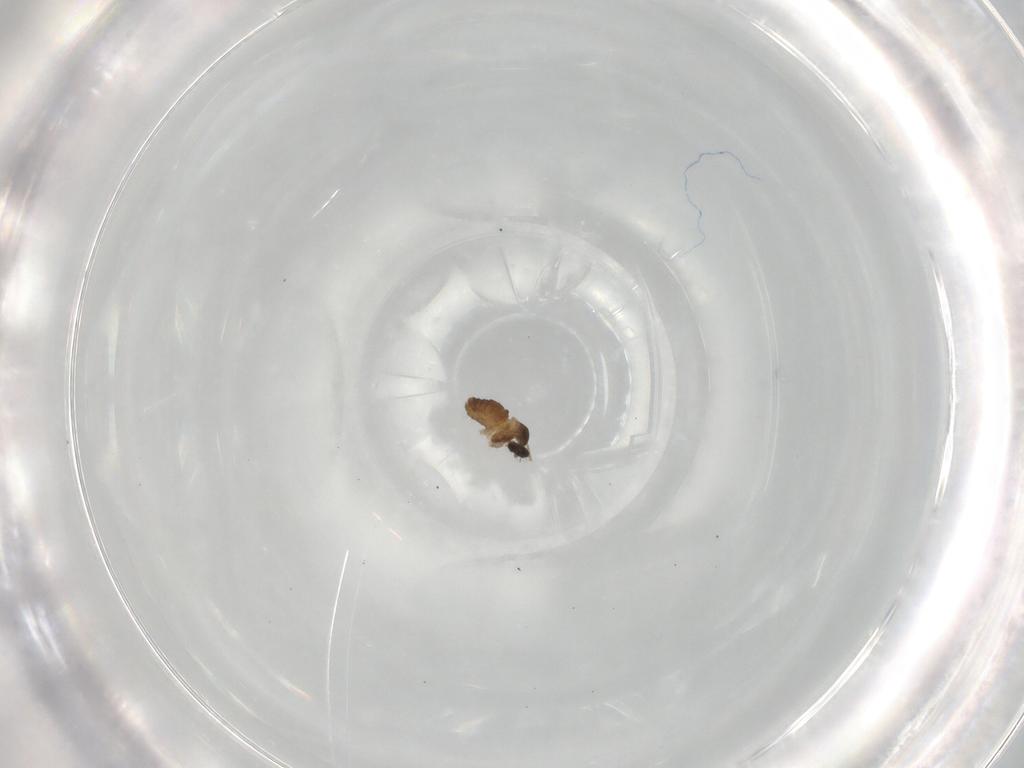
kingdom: Animalia
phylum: Arthropoda
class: Insecta
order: Diptera
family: Cecidomyiidae
